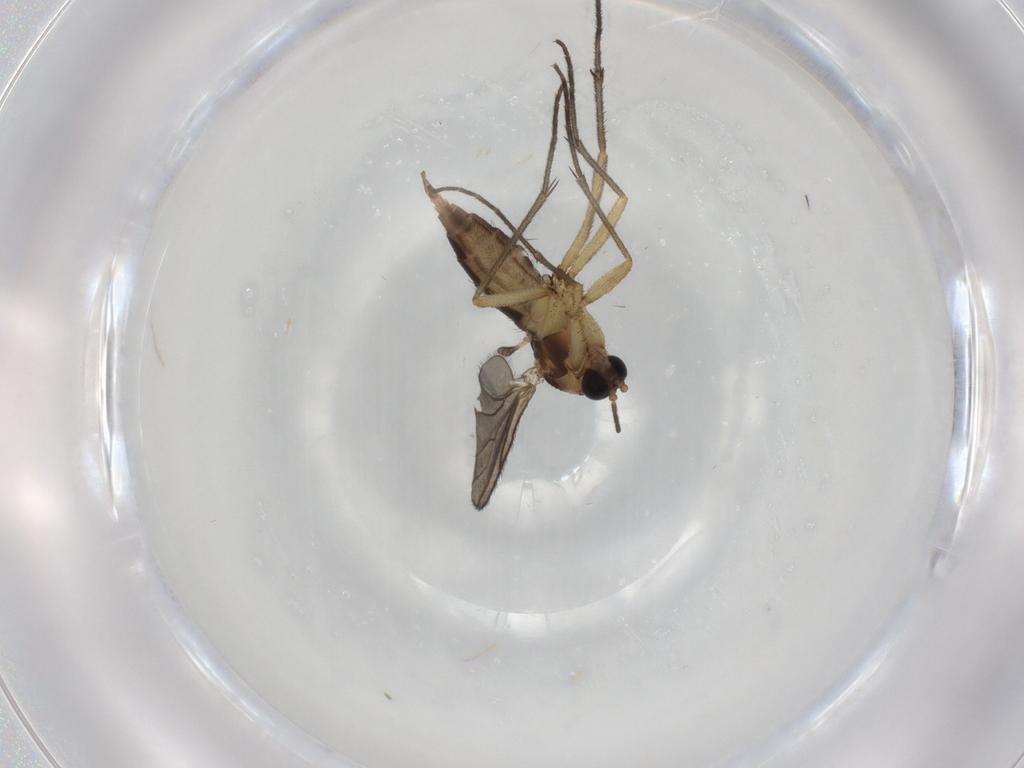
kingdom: Animalia
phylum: Arthropoda
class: Insecta
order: Diptera
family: Sciaridae
